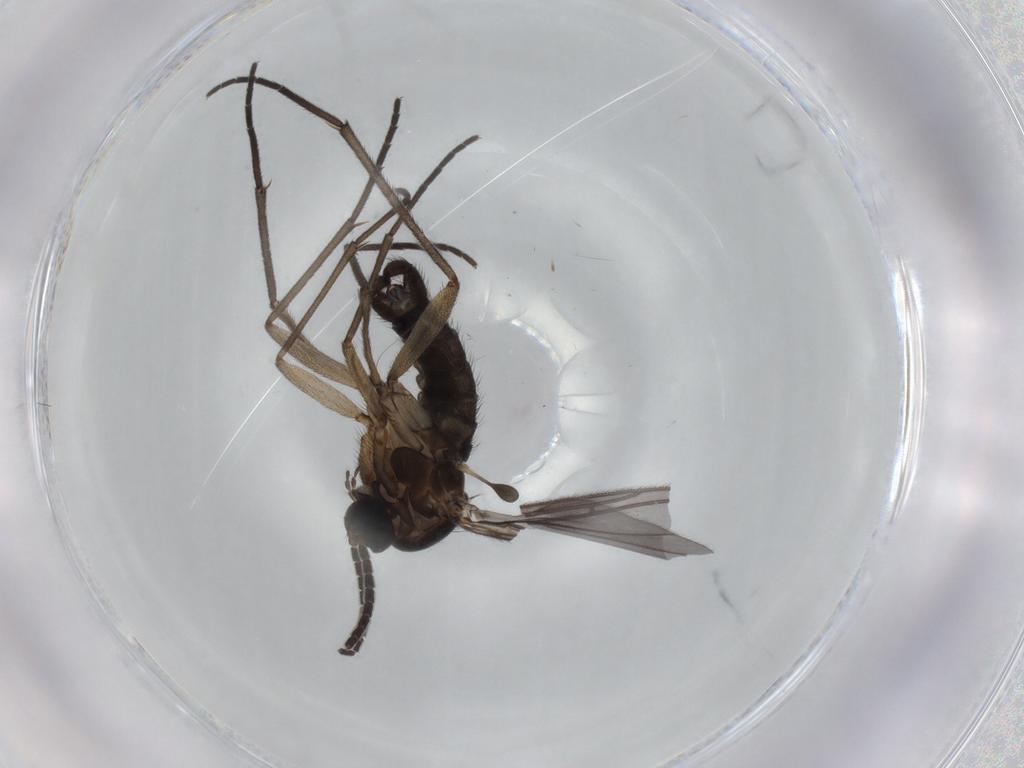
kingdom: Animalia
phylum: Arthropoda
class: Insecta
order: Diptera
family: Sciaridae
